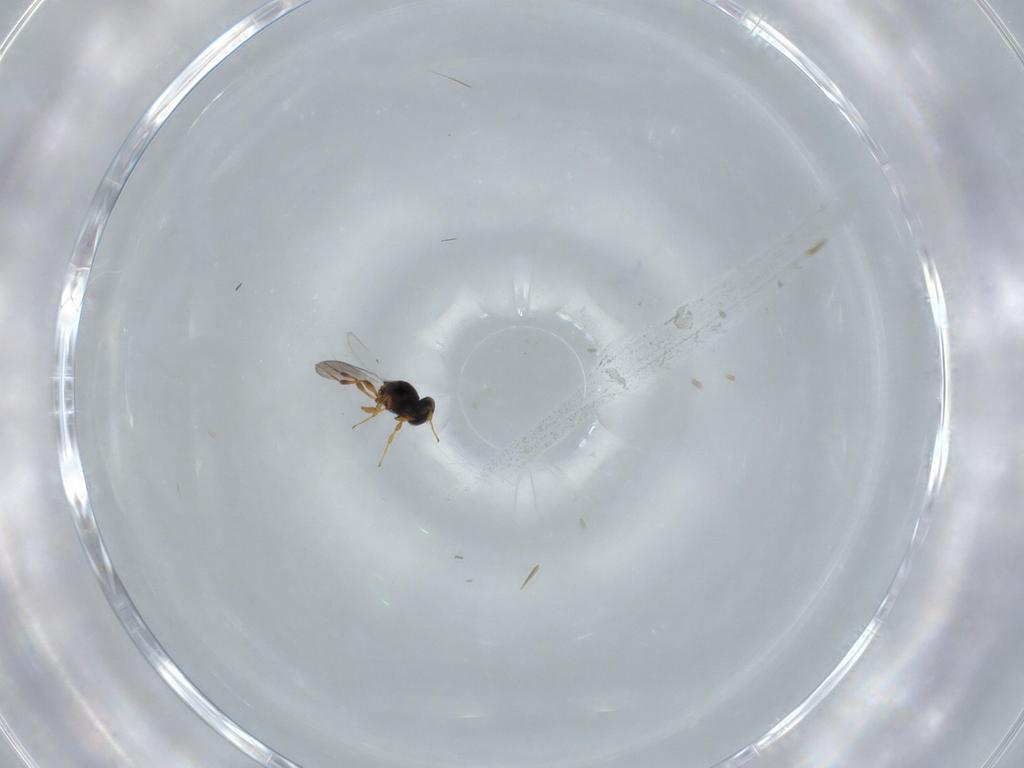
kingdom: Animalia
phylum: Arthropoda
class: Insecta
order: Hymenoptera
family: Platygastridae
